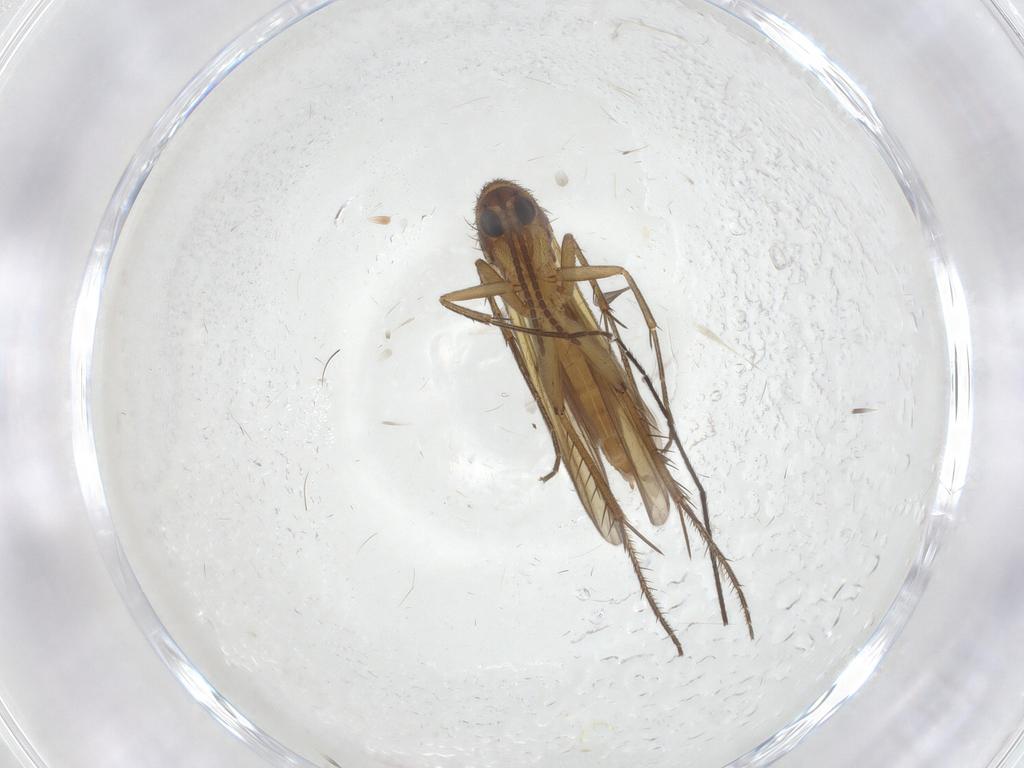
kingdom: Animalia
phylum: Arthropoda
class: Insecta
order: Diptera
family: Mycetophilidae
